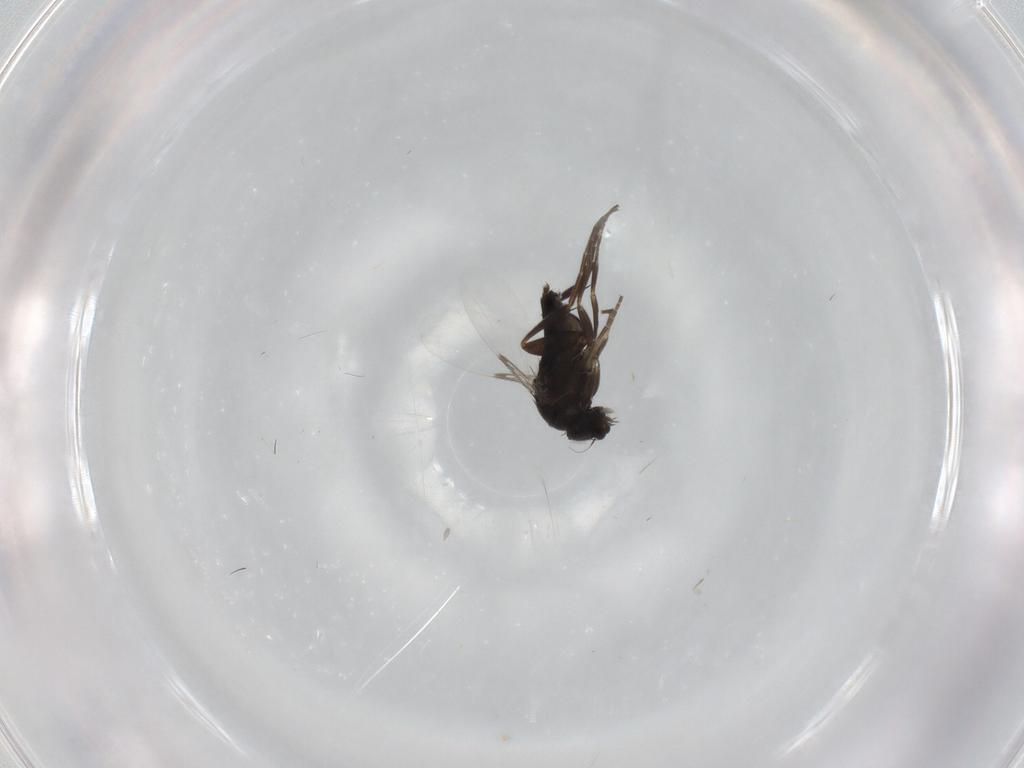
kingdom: Animalia
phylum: Arthropoda
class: Insecta
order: Diptera
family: Phoridae
